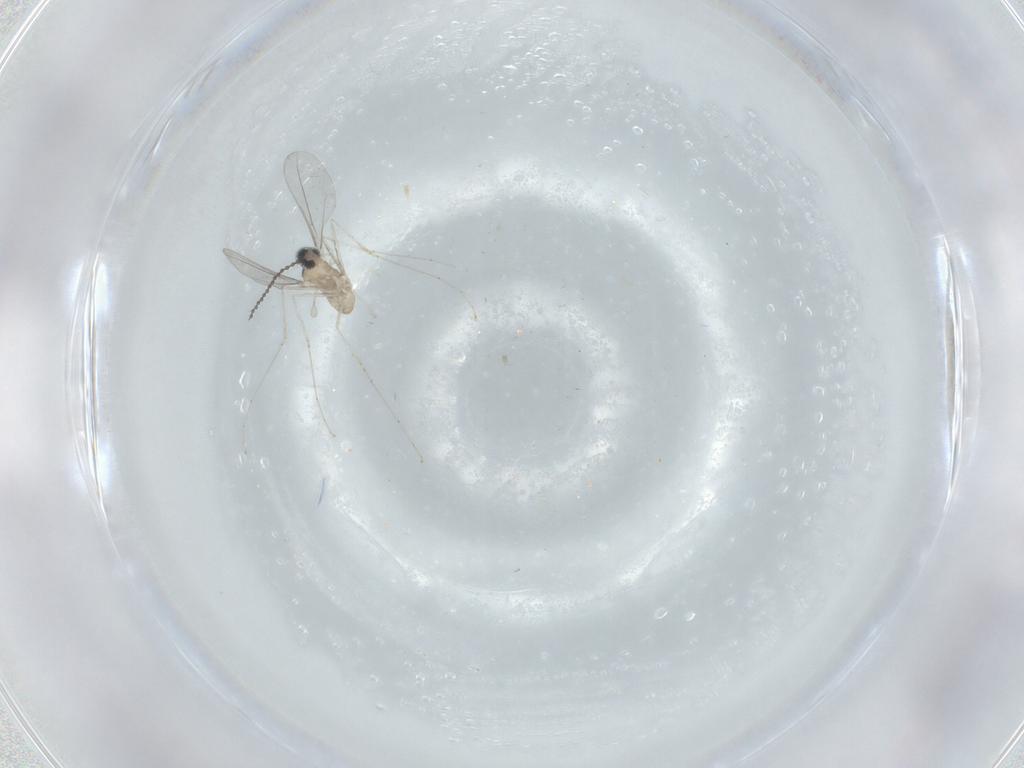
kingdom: Animalia
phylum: Arthropoda
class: Insecta
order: Diptera
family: Cecidomyiidae
